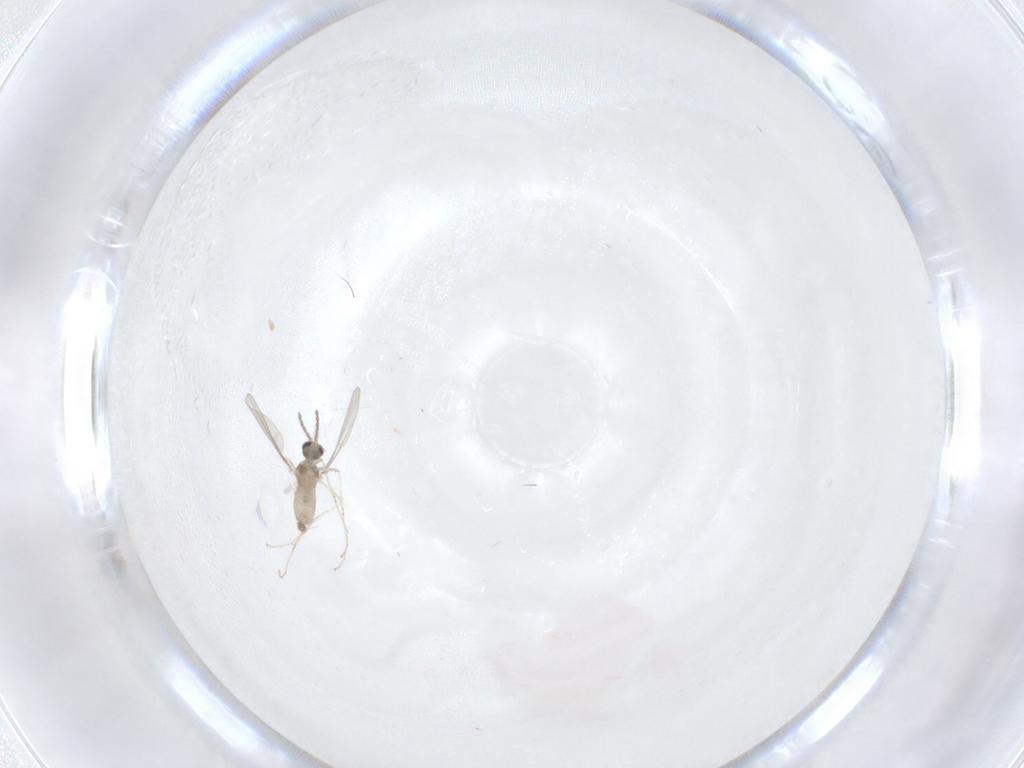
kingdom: Animalia
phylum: Arthropoda
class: Insecta
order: Diptera
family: Cecidomyiidae
